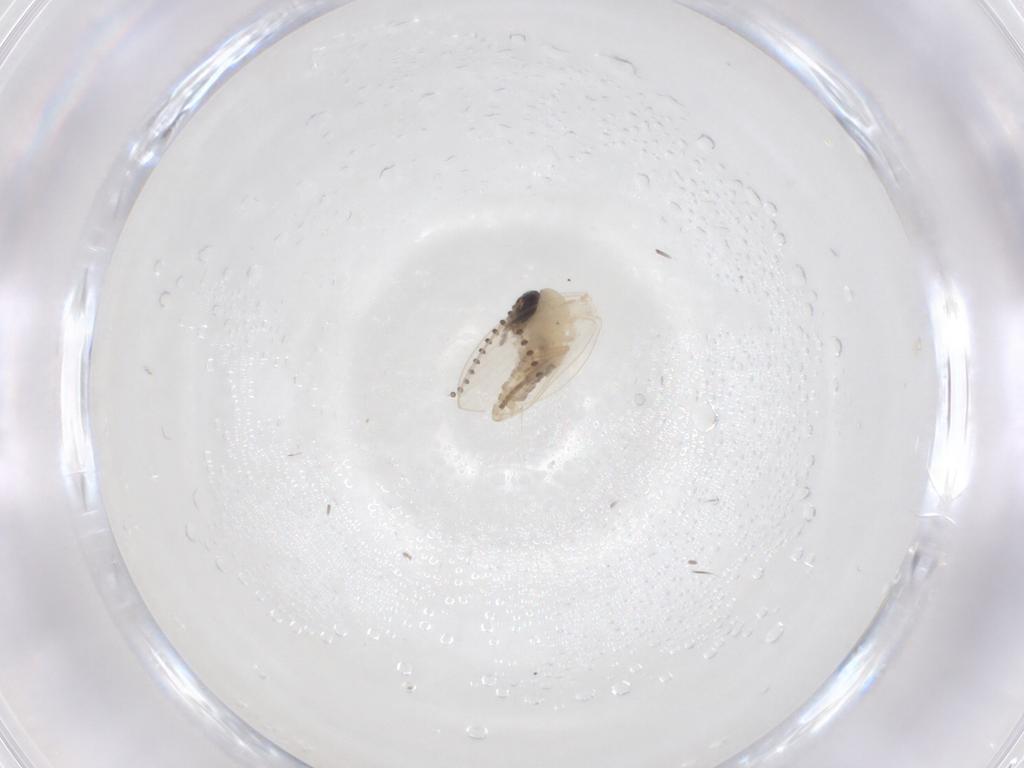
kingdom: Animalia
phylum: Arthropoda
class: Insecta
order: Diptera
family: Psychodidae
